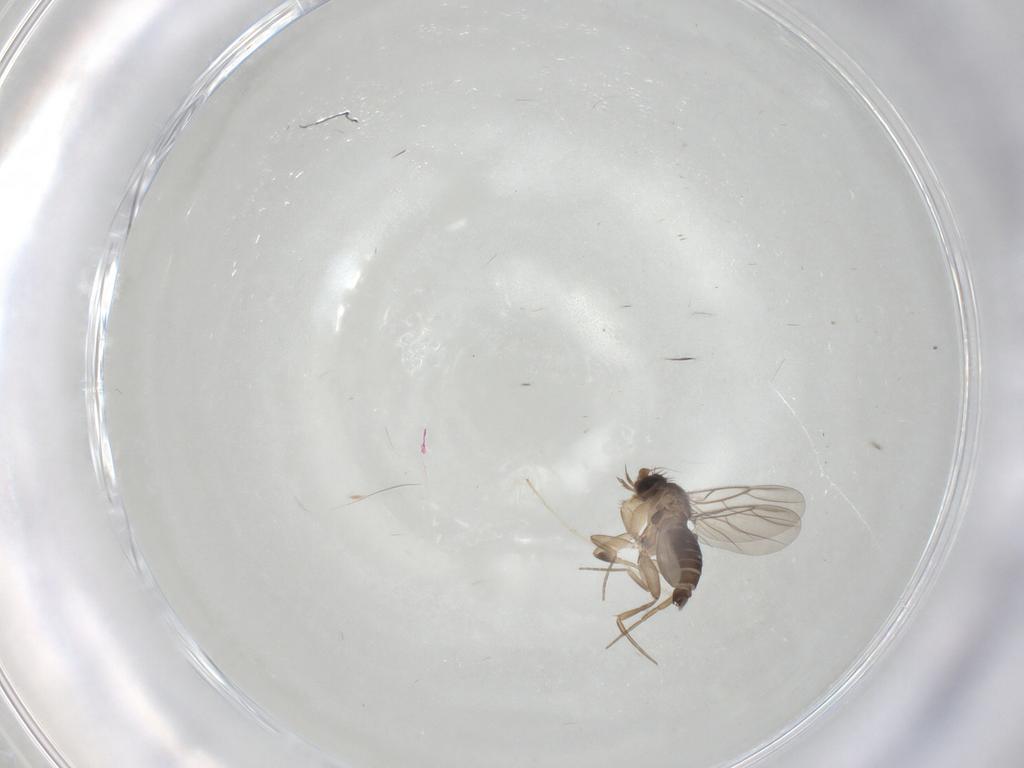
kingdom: Animalia
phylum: Arthropoda
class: Insecta
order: Diptera
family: Phoridae
